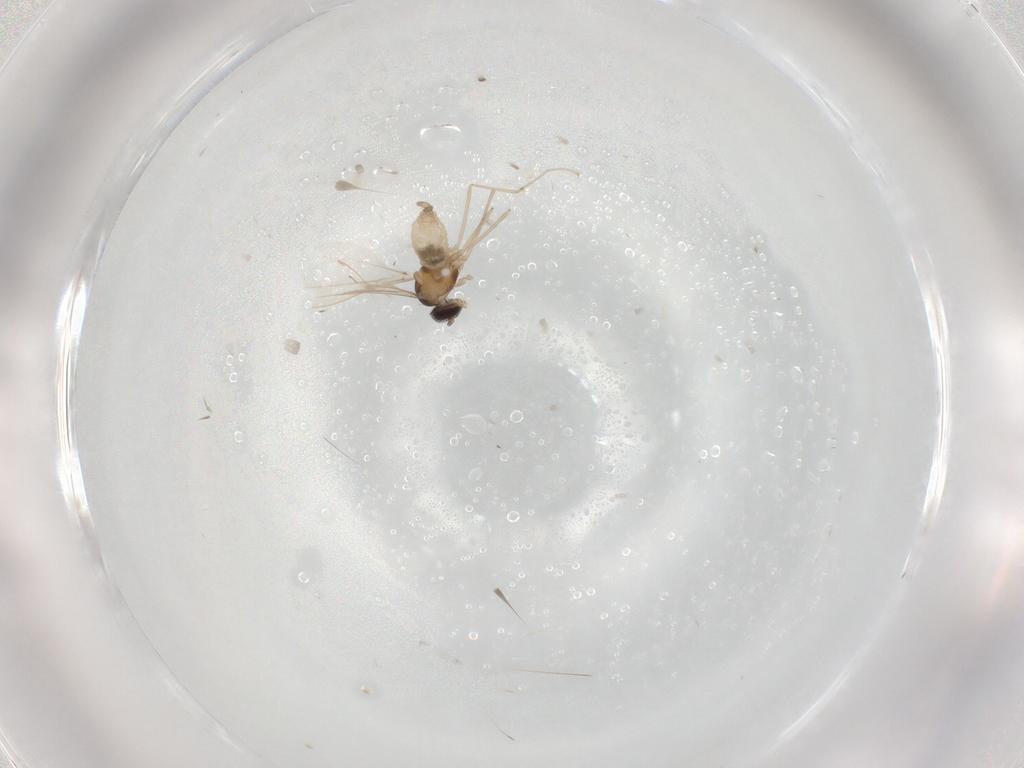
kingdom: Animalia
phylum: Arthropoda
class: Insecta
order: Diptera
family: Cecidomyiidae
